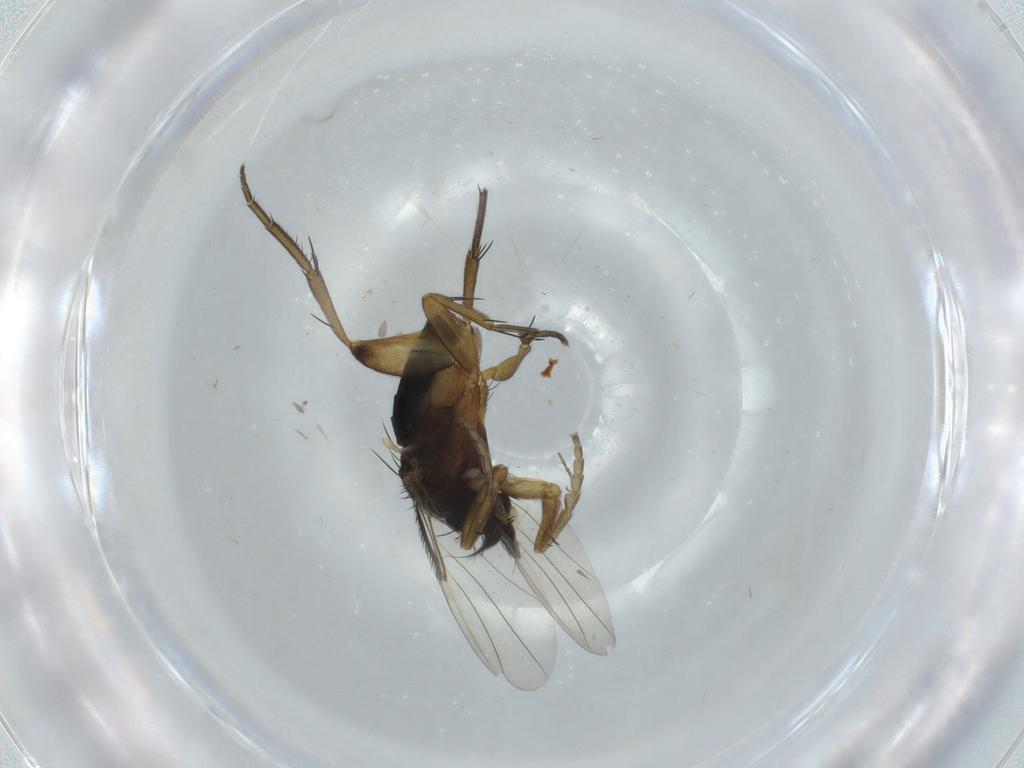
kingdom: Animalia
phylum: Arthropoda
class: Insecta
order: Diptera
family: Phoridae
